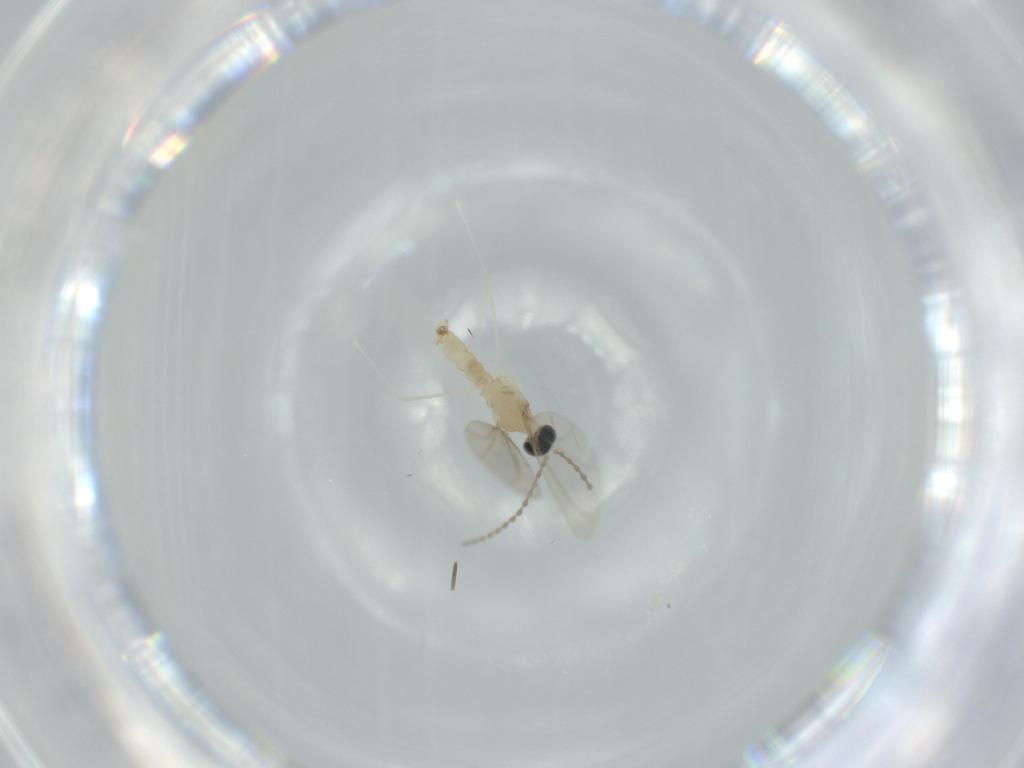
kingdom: Animalia
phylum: Arthropoda
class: Insecta
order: Diptera
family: Cecidomyiidae
